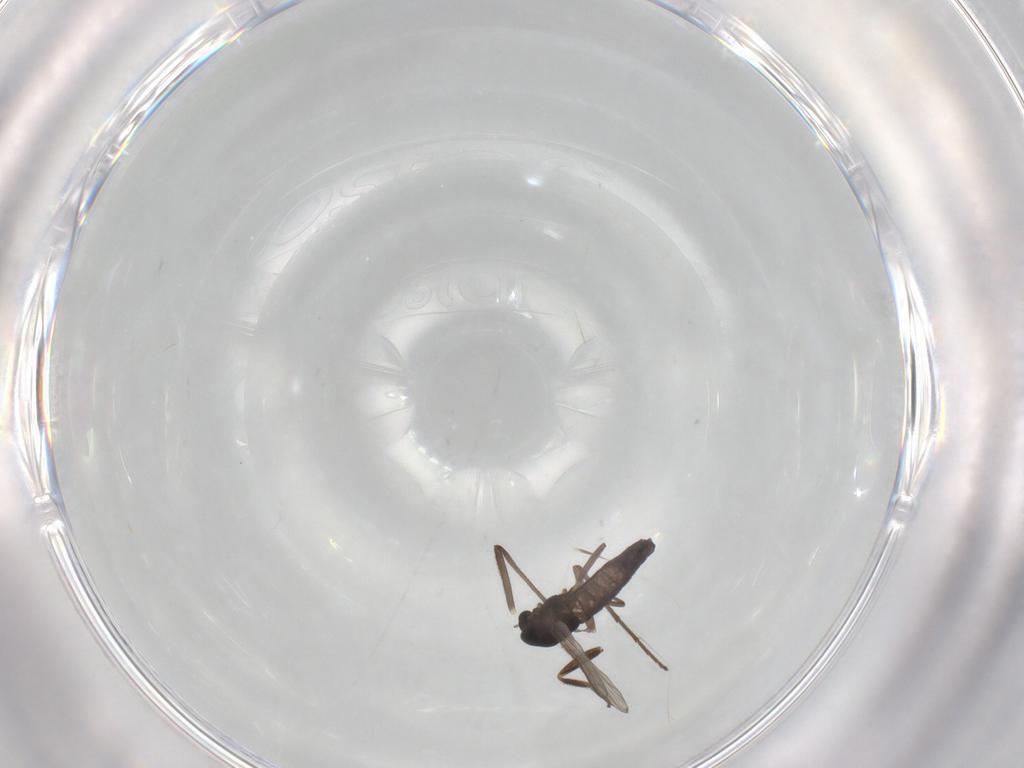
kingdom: Animalia
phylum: Arthropoda
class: Insecta
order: Diptera
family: Chironomidae
